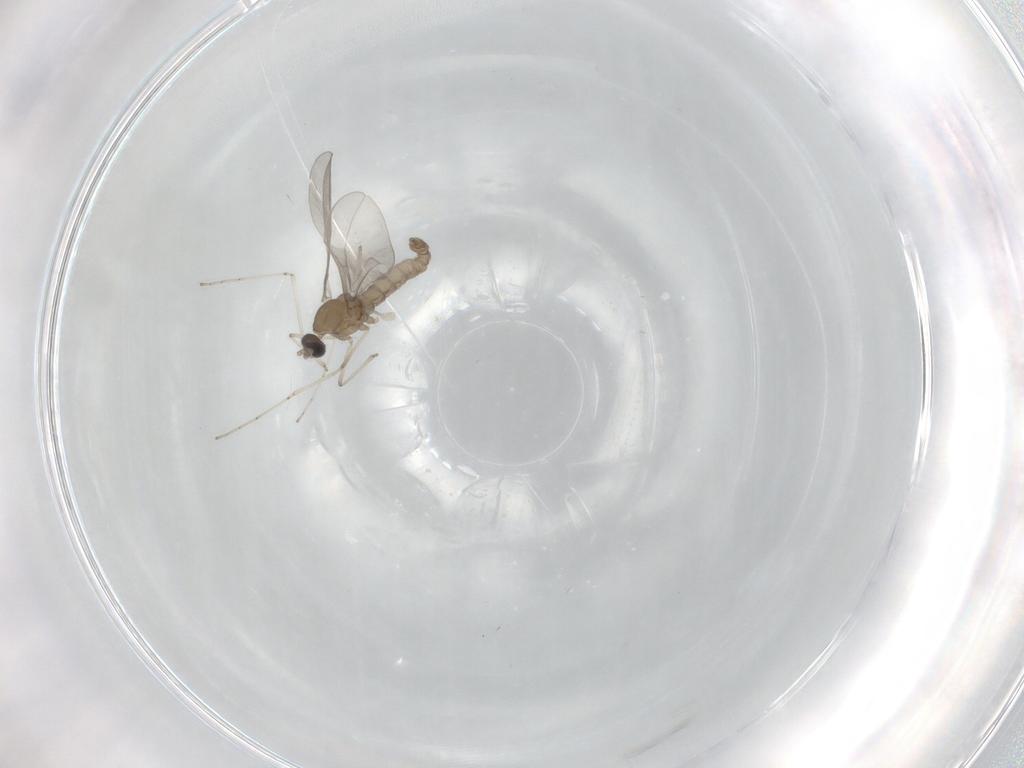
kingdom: Animalia
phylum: Arthropoda
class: Insecta
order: Diptera
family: Cecidomyiidae
